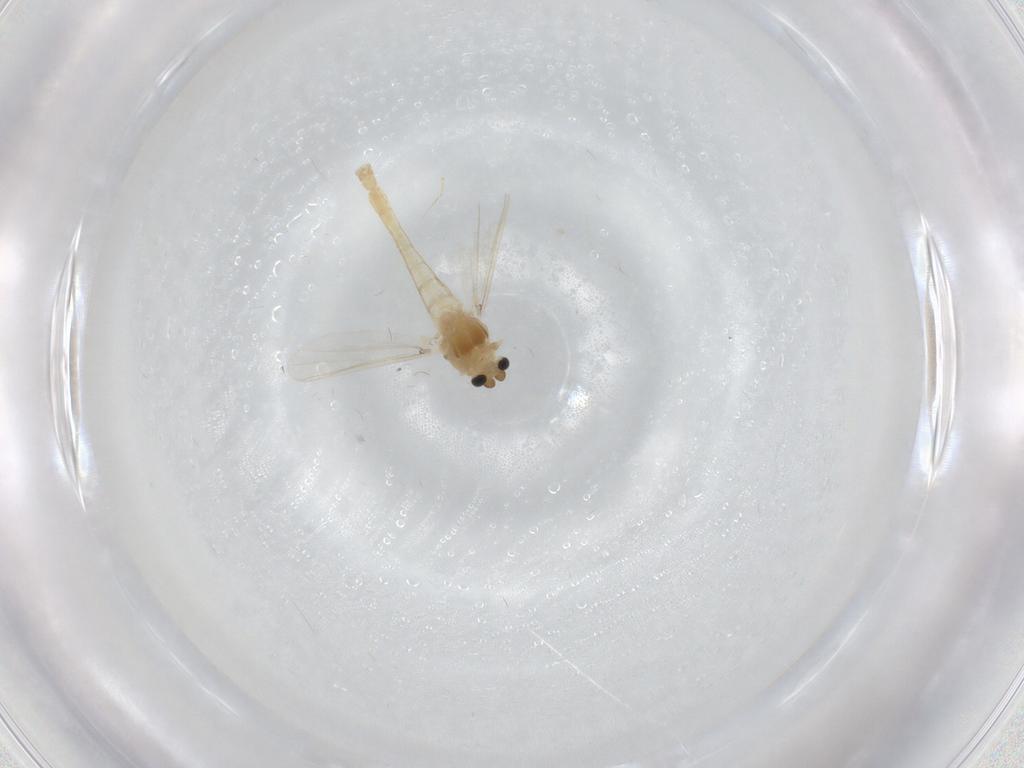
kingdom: Animalia
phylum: Arthropoda
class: Insecta
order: Diptera
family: Chironomidae
